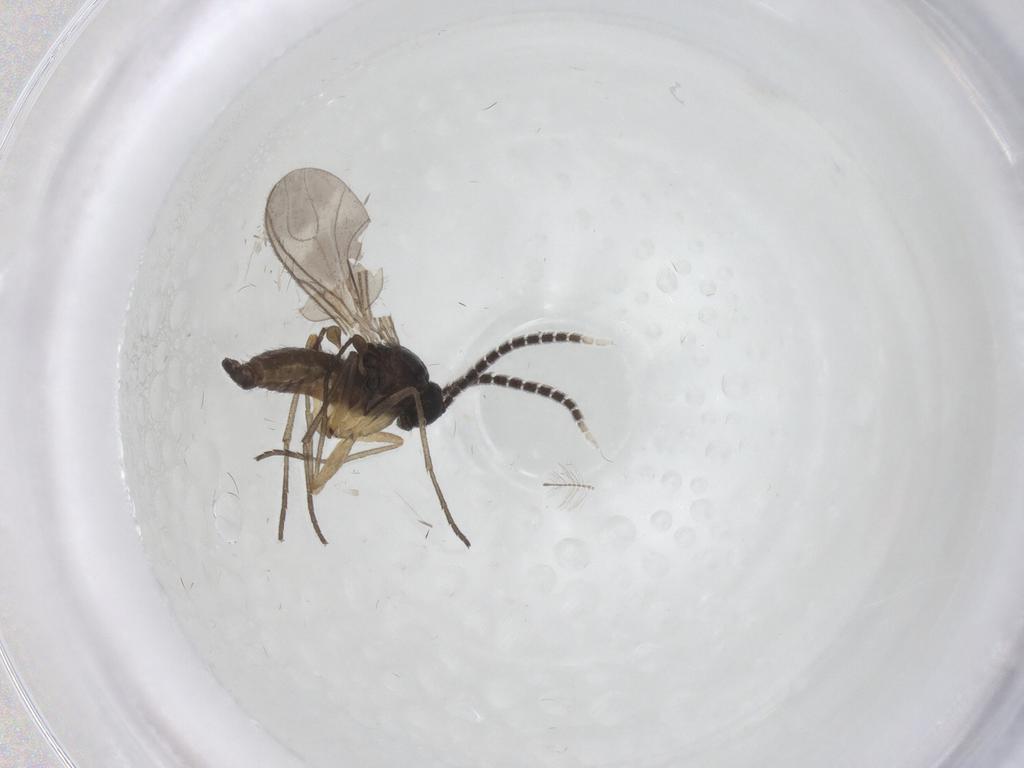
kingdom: Animalia
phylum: Arthropoda
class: Insecta
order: Diptera
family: Sciaridae
